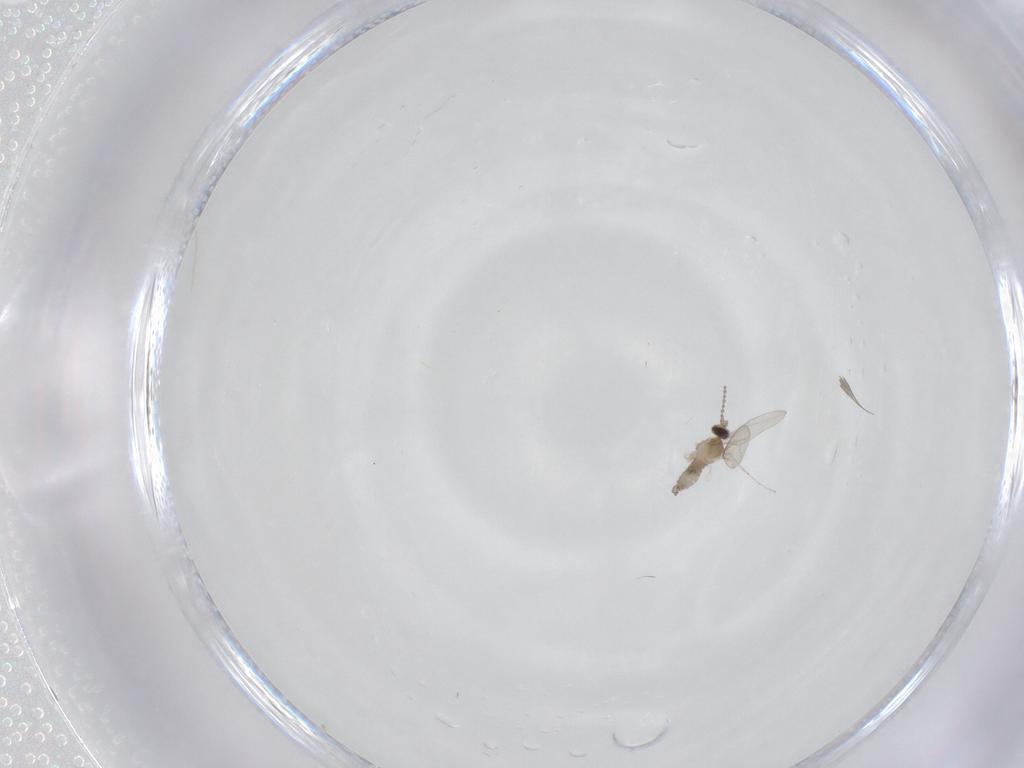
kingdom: Animalia
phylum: Arthropoda
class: Insecta
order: Diptera
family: Cecidomyiidae
